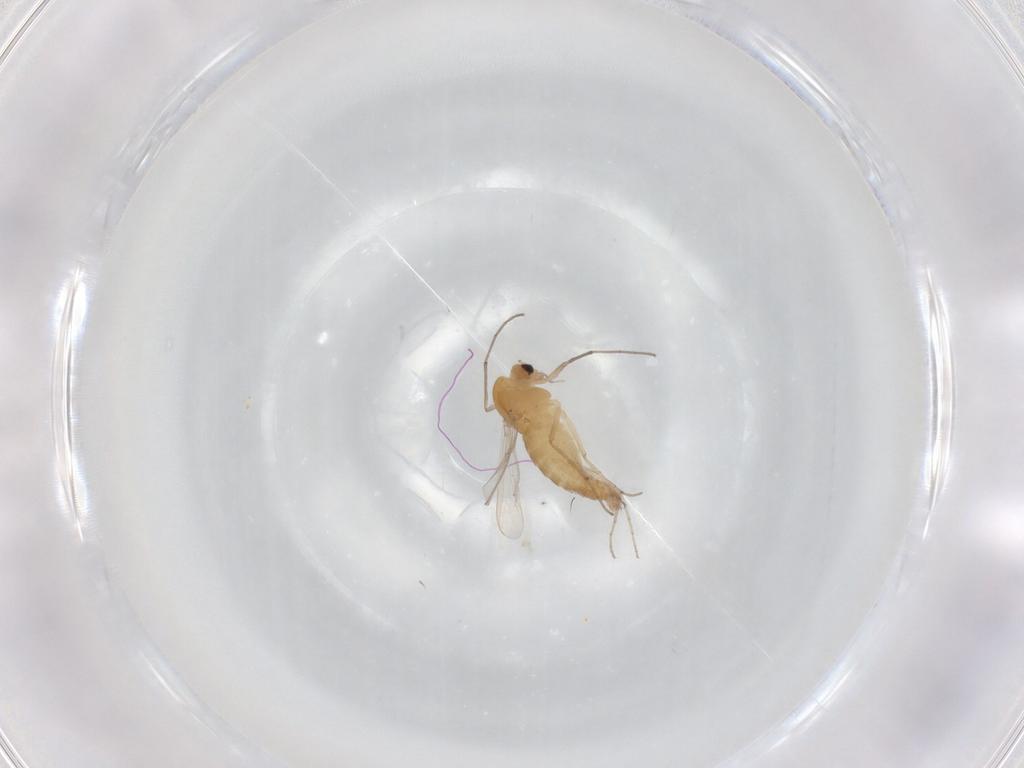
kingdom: Animalia
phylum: Arthropoda
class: Insecta
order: Diptera
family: Chironomidae
